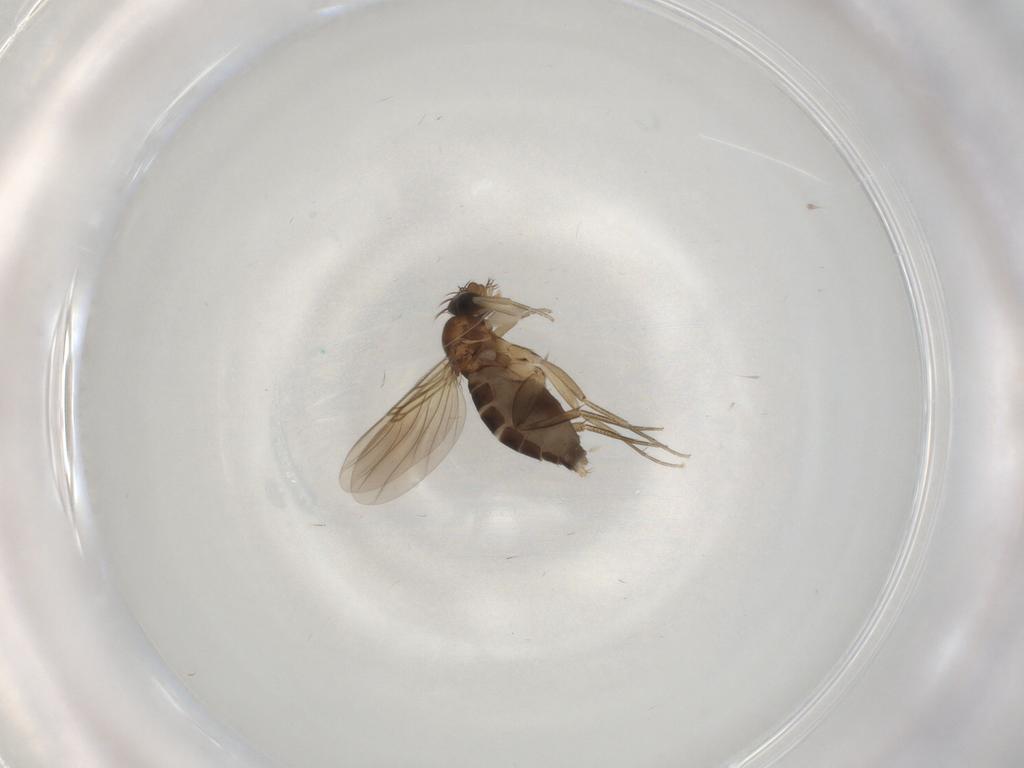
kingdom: Animalia
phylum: Arthropoda
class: Insecta
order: Diptera
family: Phoridae
